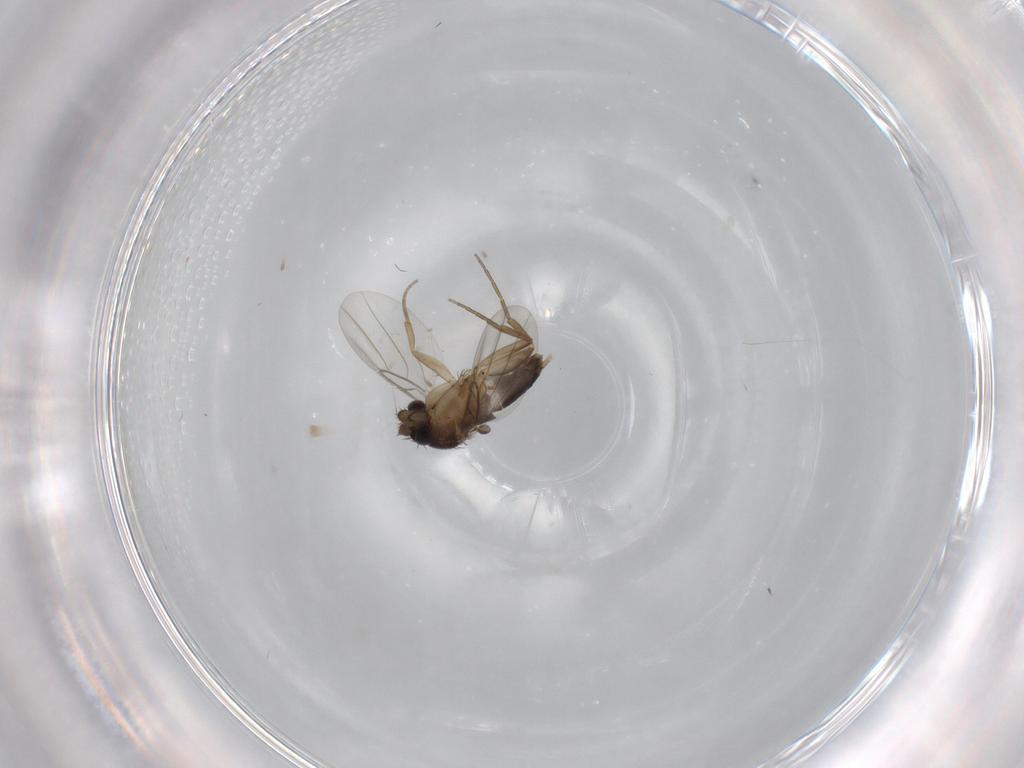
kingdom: Animalia
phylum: Arthropoda
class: Insecta
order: Diptera
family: Phoridae
